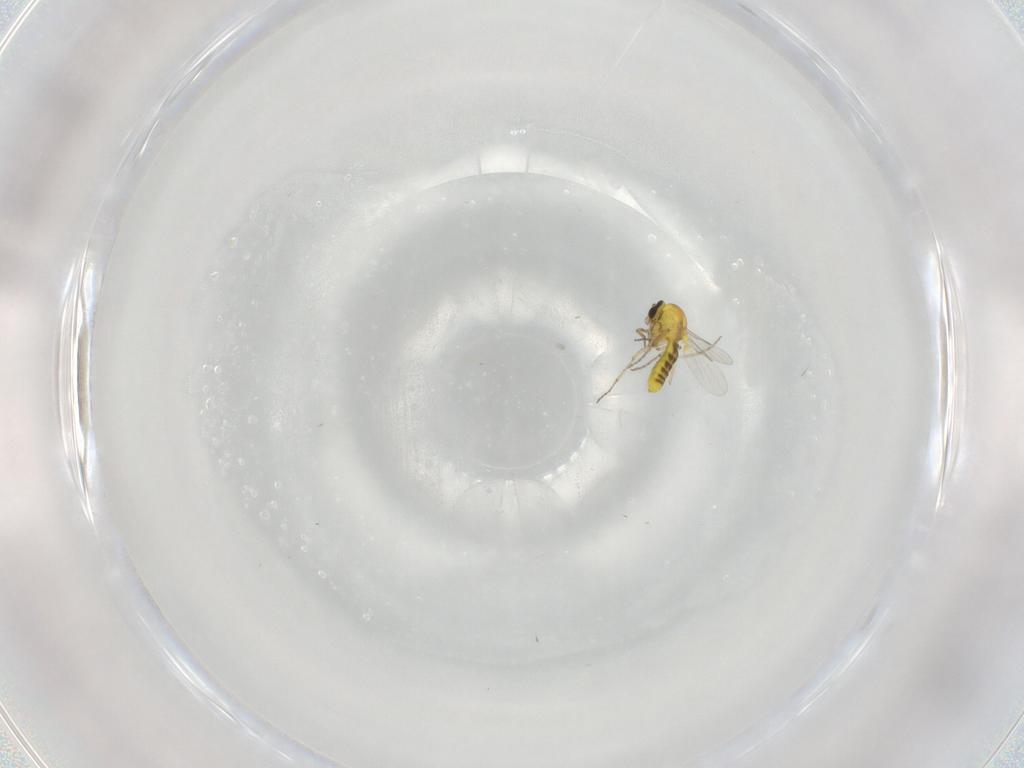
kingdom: Animalia
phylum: Arthropoda
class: Insecta
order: Diptera
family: Ceratopogonidae
